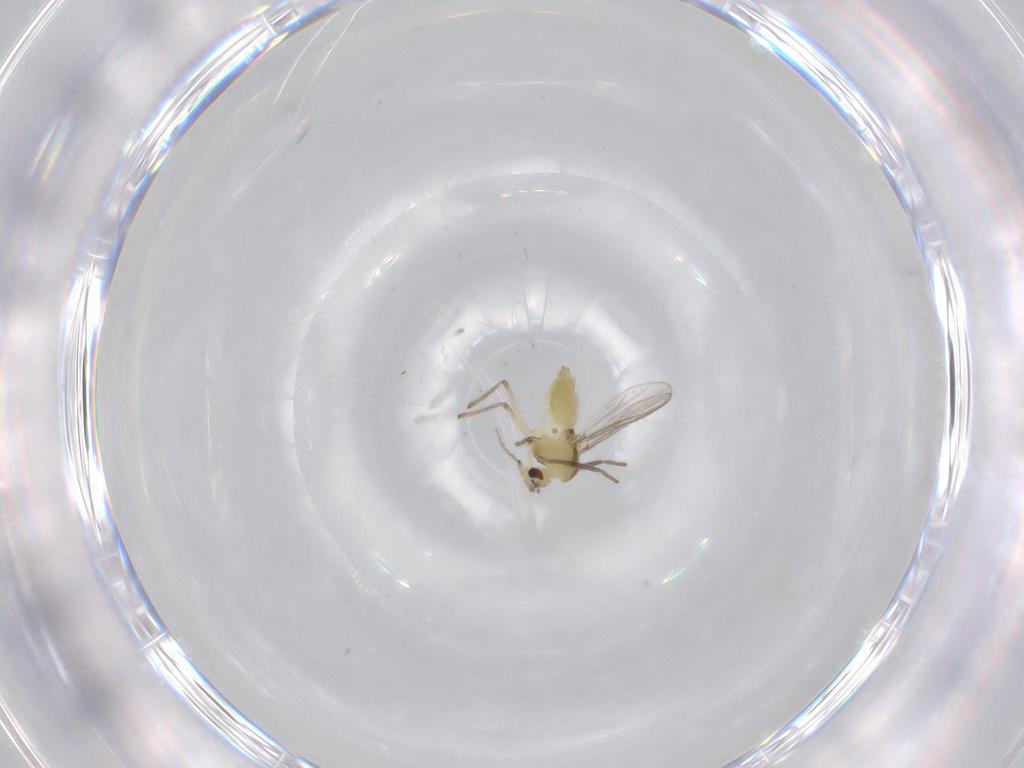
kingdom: Animalia
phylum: Arthropoda
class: Insecta
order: Diptera
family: Chironomidae
